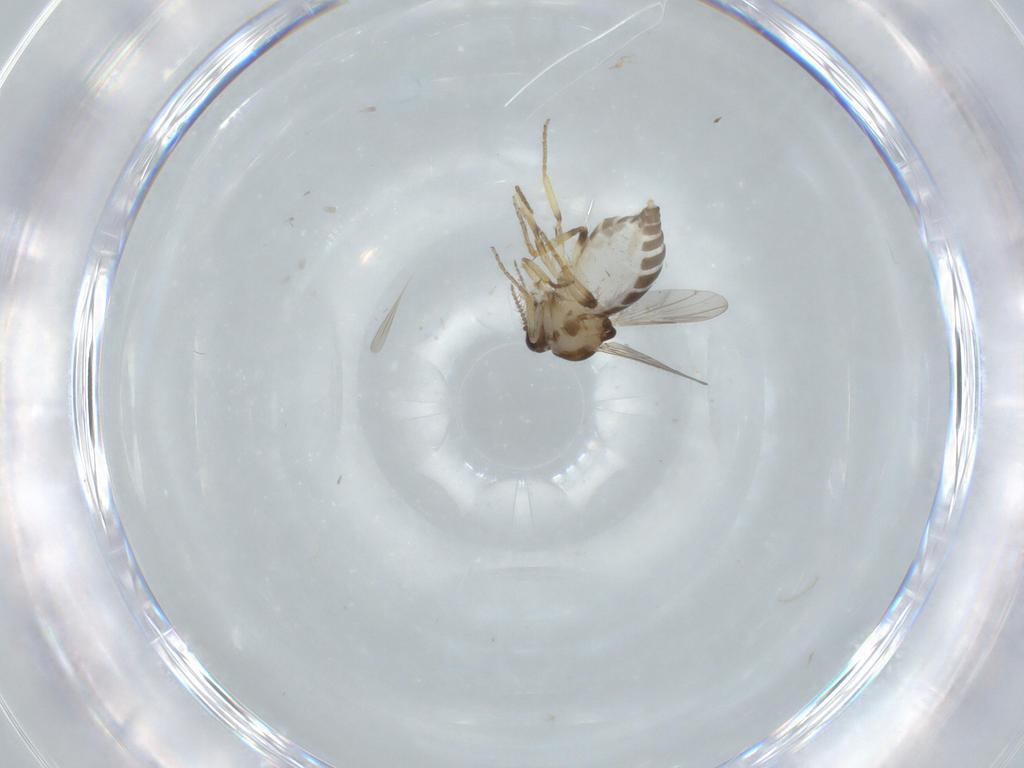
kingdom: Animalia
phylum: Arthropoda
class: Insecta
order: Diptera
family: Ceratopogonidae
